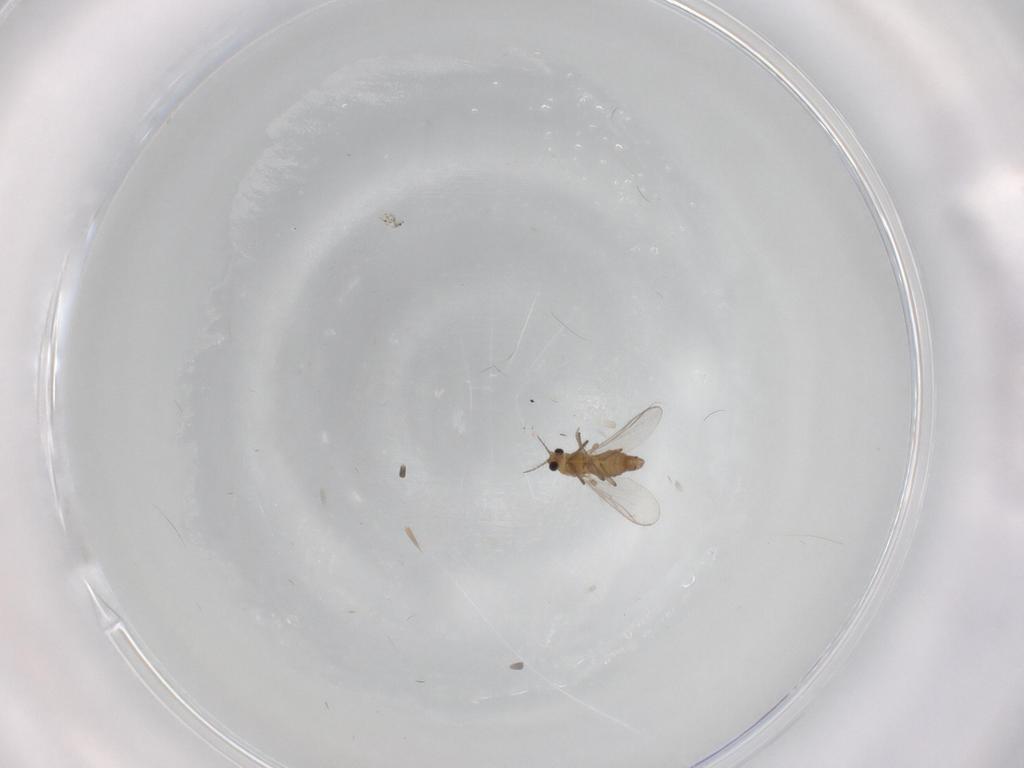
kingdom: Animalia
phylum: Arthropoda
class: Insecta
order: Diptera
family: Chironomidae
